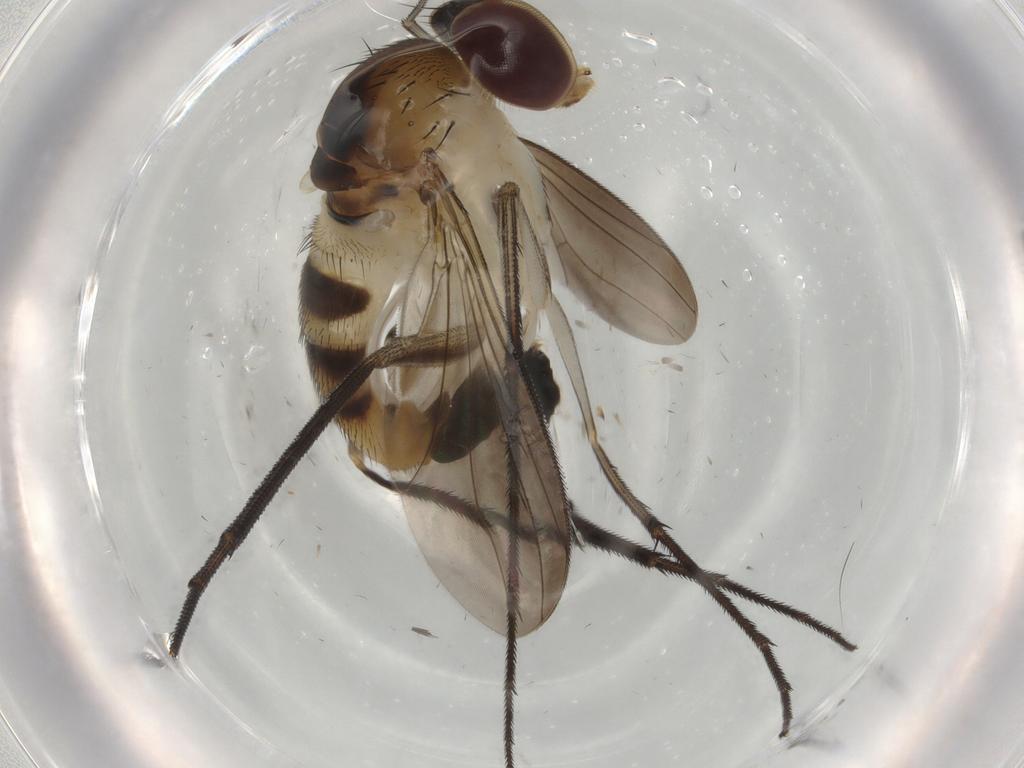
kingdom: Animalia
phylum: Arthropoda
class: Insecta
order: Diptera
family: Dolichopodidae
